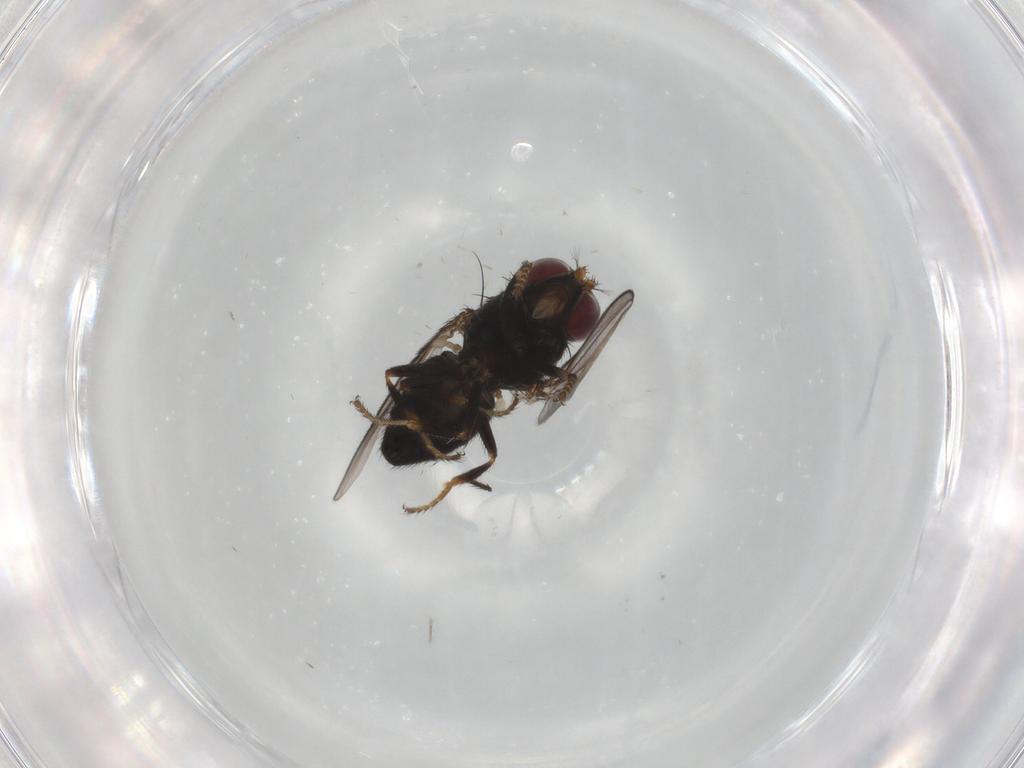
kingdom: Animalia
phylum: Arthropoda
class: Insecta
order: Diptera
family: Ephydridae
